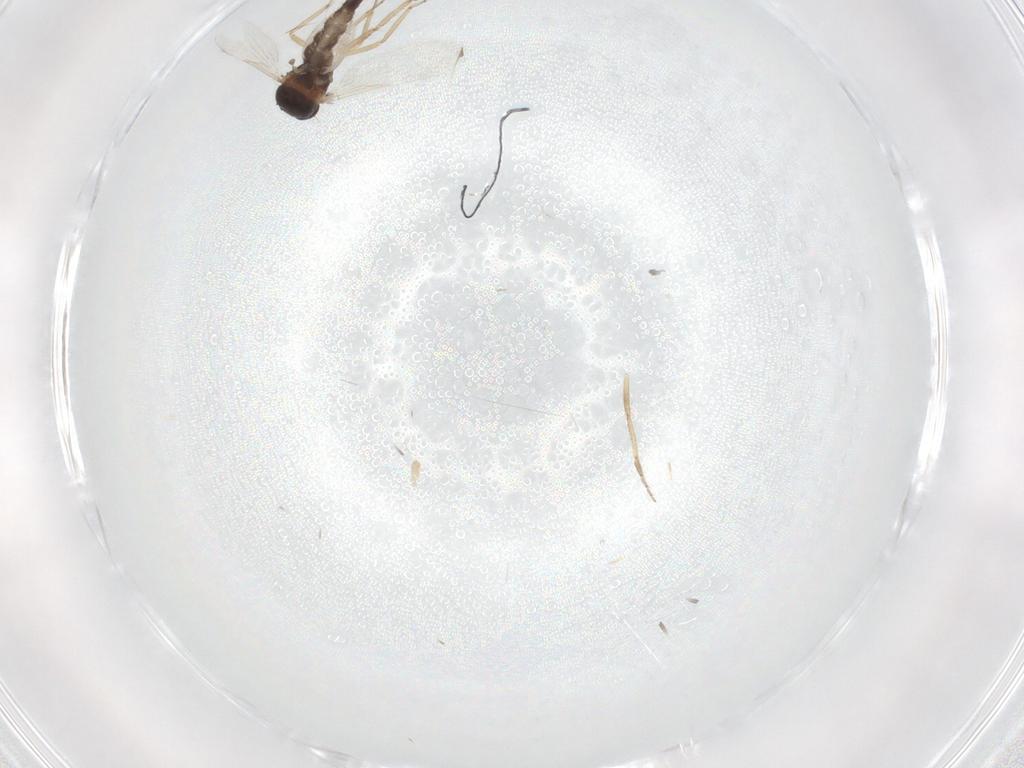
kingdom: Animalia
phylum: Arthropoda
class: Insecta
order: Diptera
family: Ceratopogonidae
